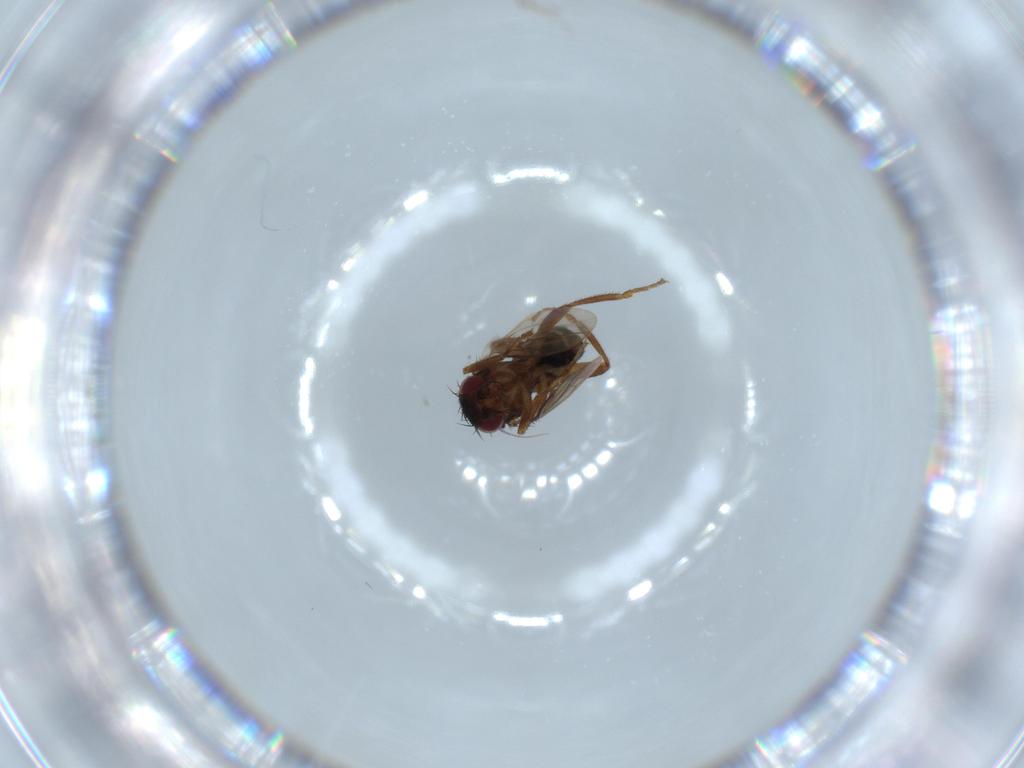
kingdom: Animalia
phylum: Arthropoda
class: Insecta
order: Diptera
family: Sphaeroceridae
